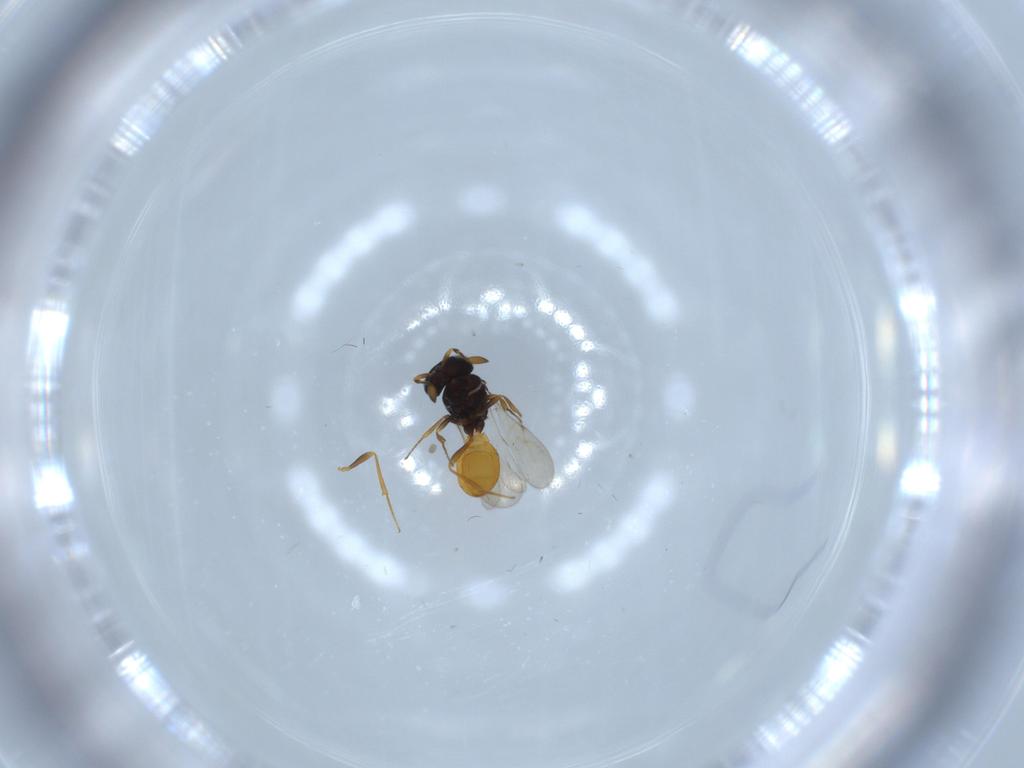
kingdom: Animalia
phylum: Arthropoda
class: Insecta
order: Hymenoptera
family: Scelionidae
